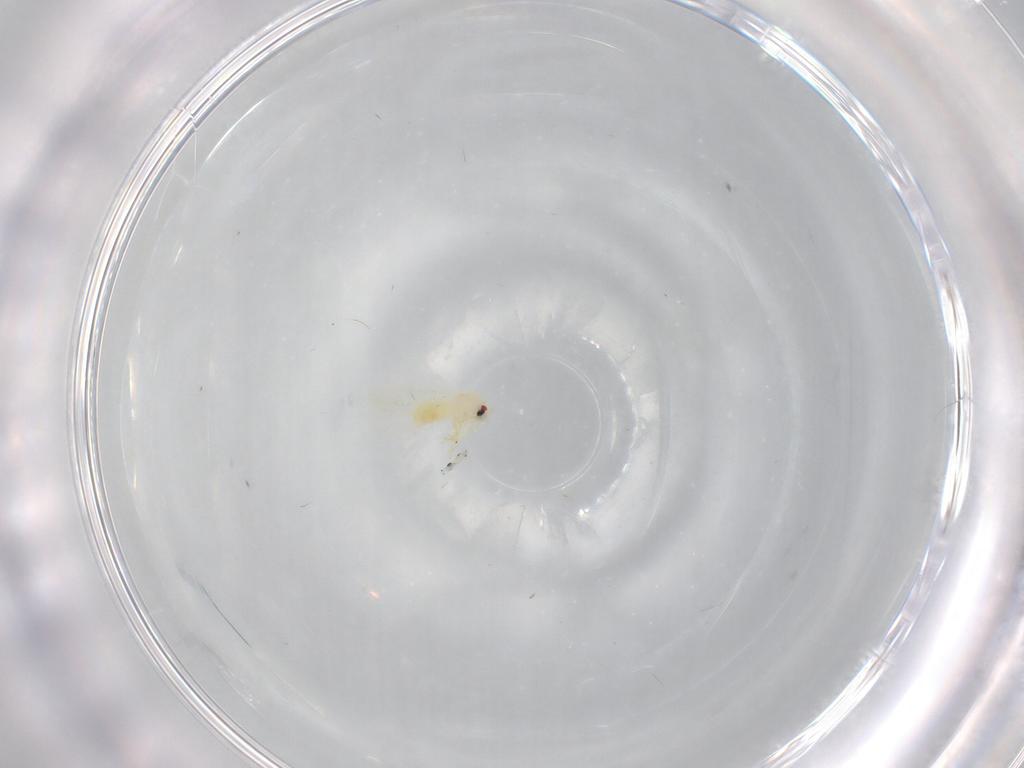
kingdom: Animalia
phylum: Arthropoda
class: Insecta
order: Hemiptera
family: Aleyrodidae
